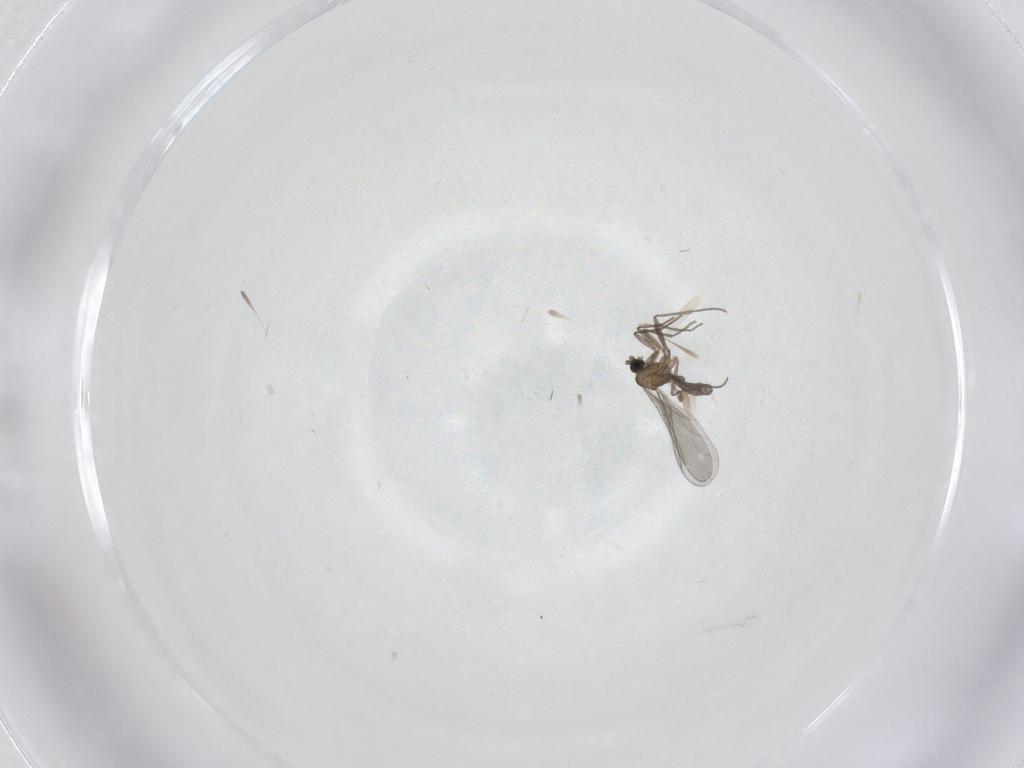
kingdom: Animalia
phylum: Arthropoda
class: Insecta
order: Diptera
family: Sciaridae
